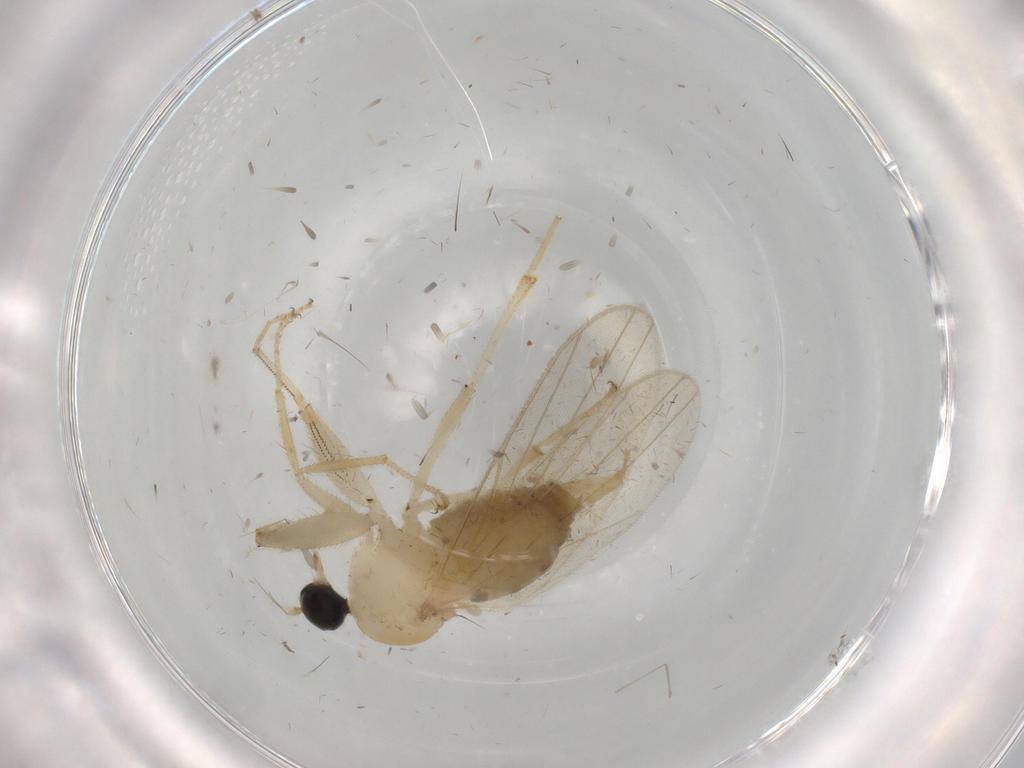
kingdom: Animalia
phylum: Arthropoda
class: Insecta
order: Diptera
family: Hybotidae
